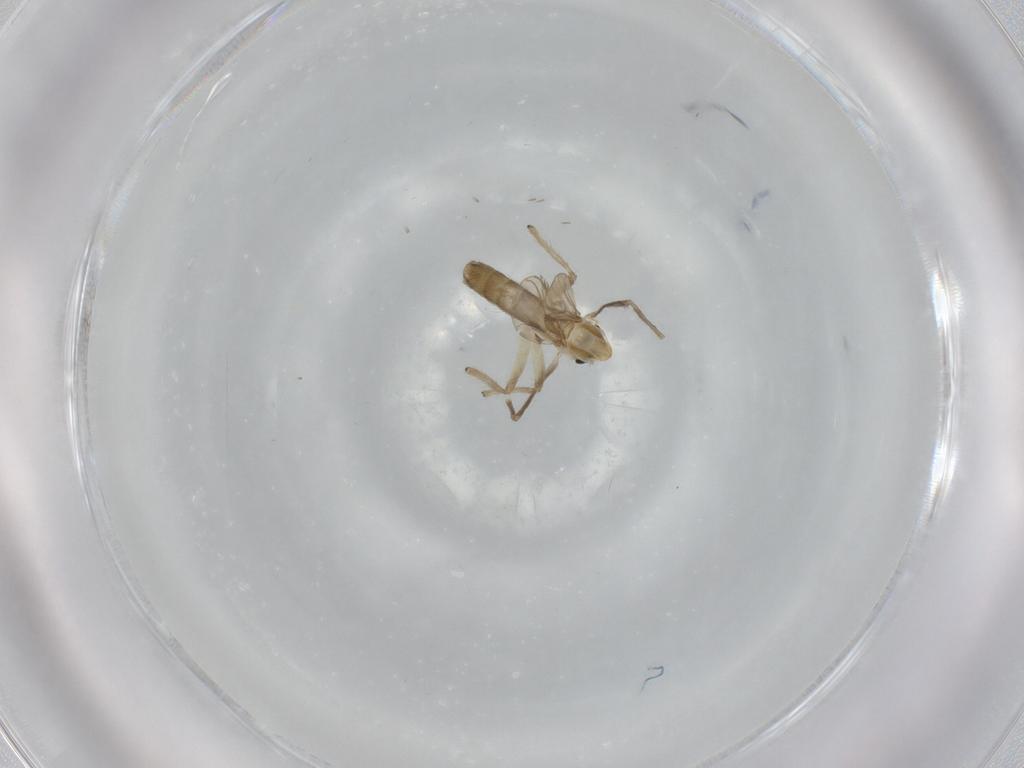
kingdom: Animalia
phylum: Arthropoda
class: Insecta
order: Diptera
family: Chironomidae
